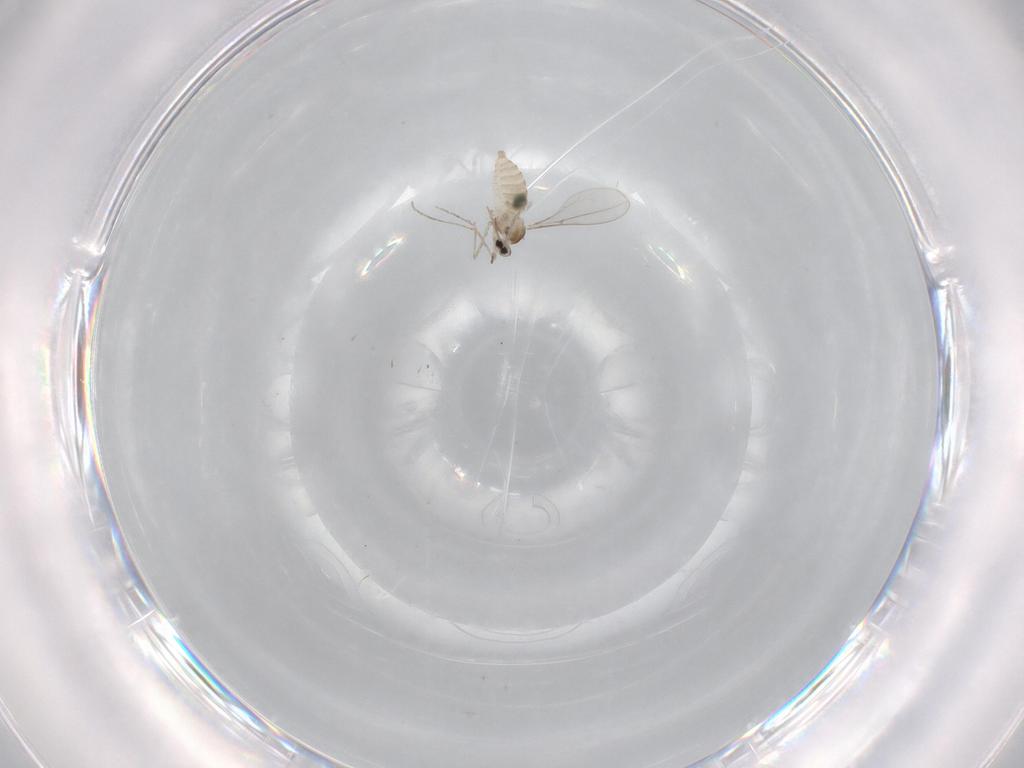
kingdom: Animalia
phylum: Arthropoda
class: Insecta
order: Diptera
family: Cecidomyiidae
